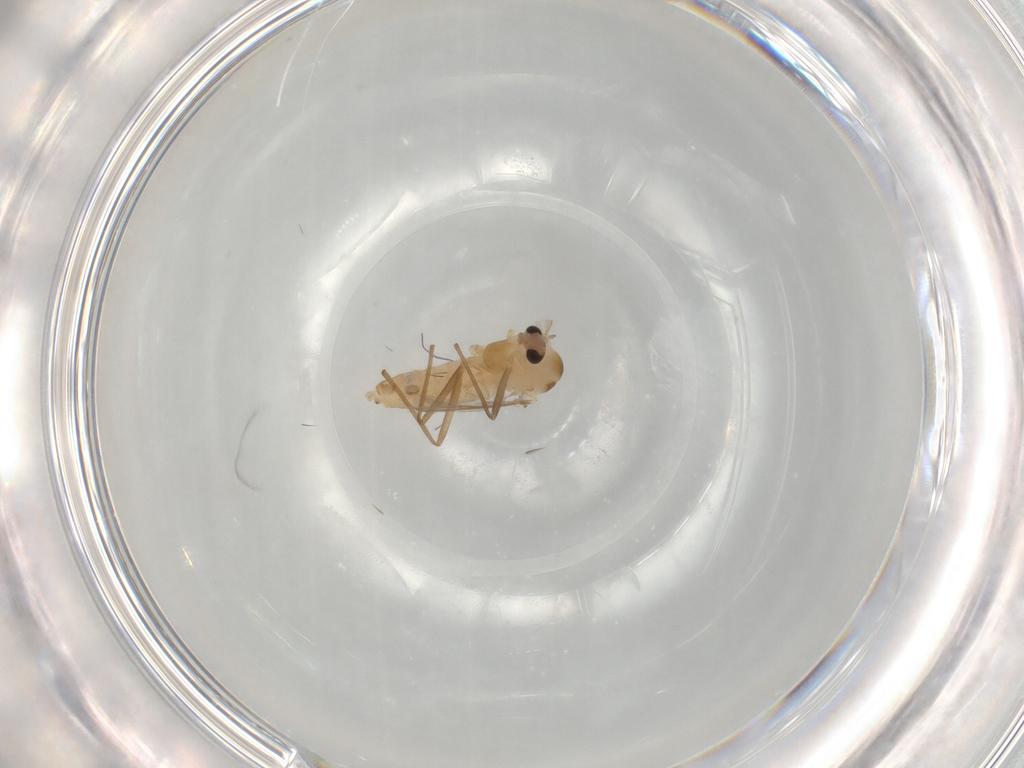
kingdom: Animalia
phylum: Arthropoda
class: Insecta
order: Diptera
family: Chironomidae
